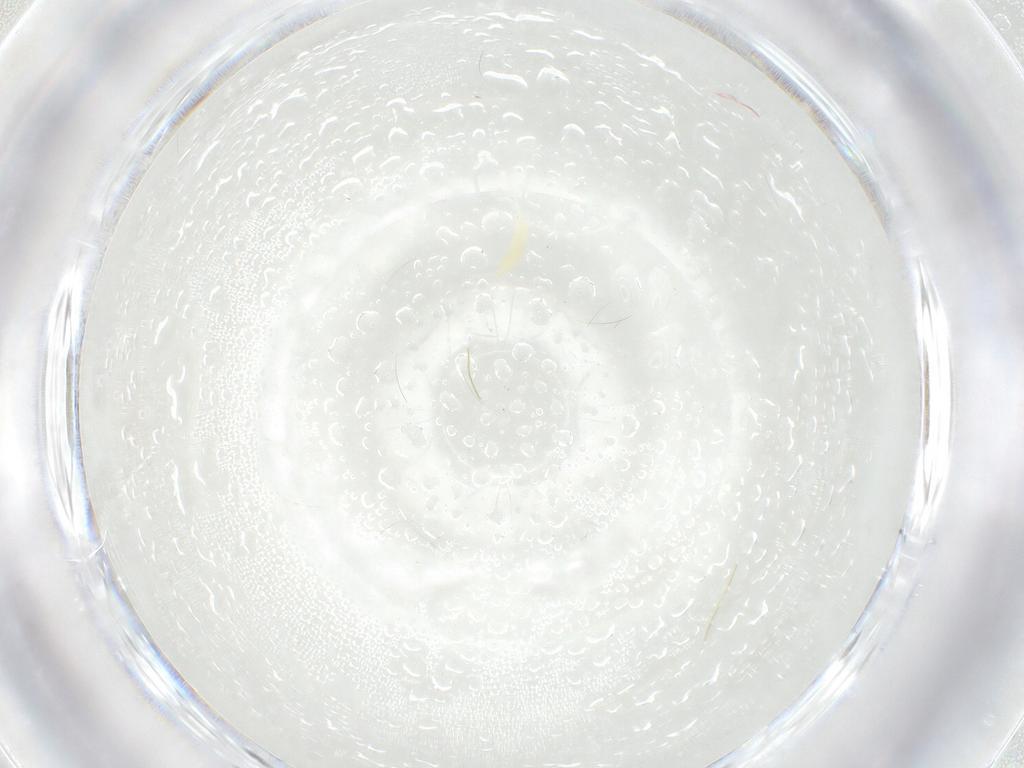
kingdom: Animalia
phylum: Arthropoda
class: Insecta
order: Hymenoptera
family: Eupelmidae
